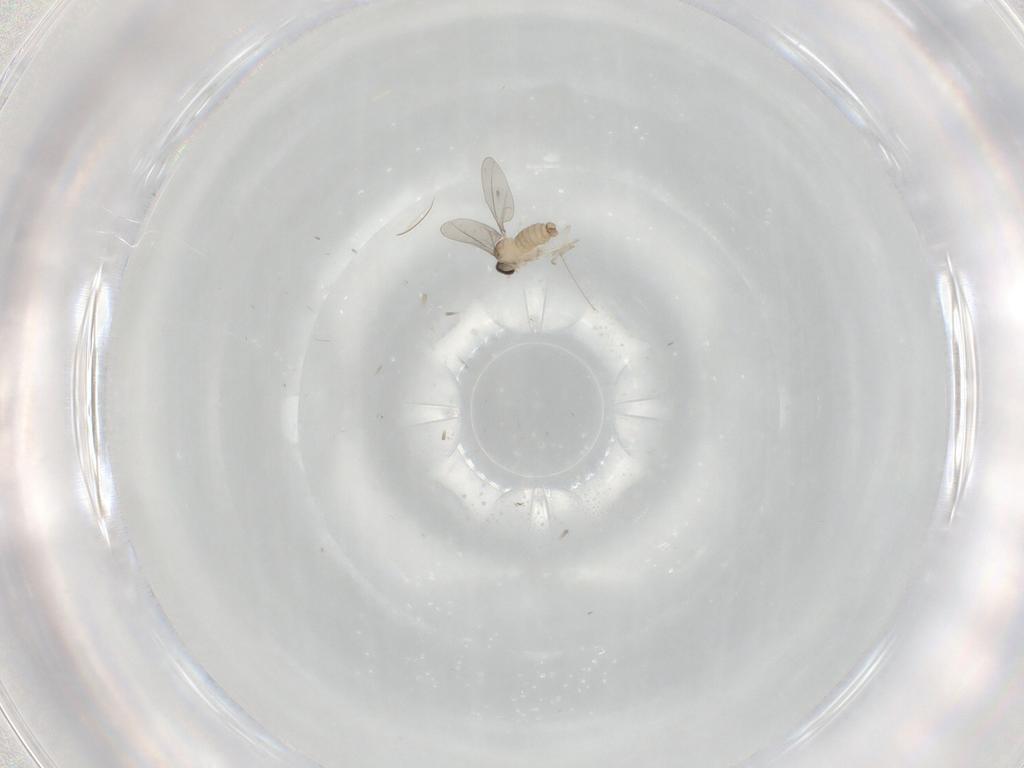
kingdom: Animalia
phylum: Arthropoda
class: Insecta
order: Diptera
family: Cecidomyiidae
